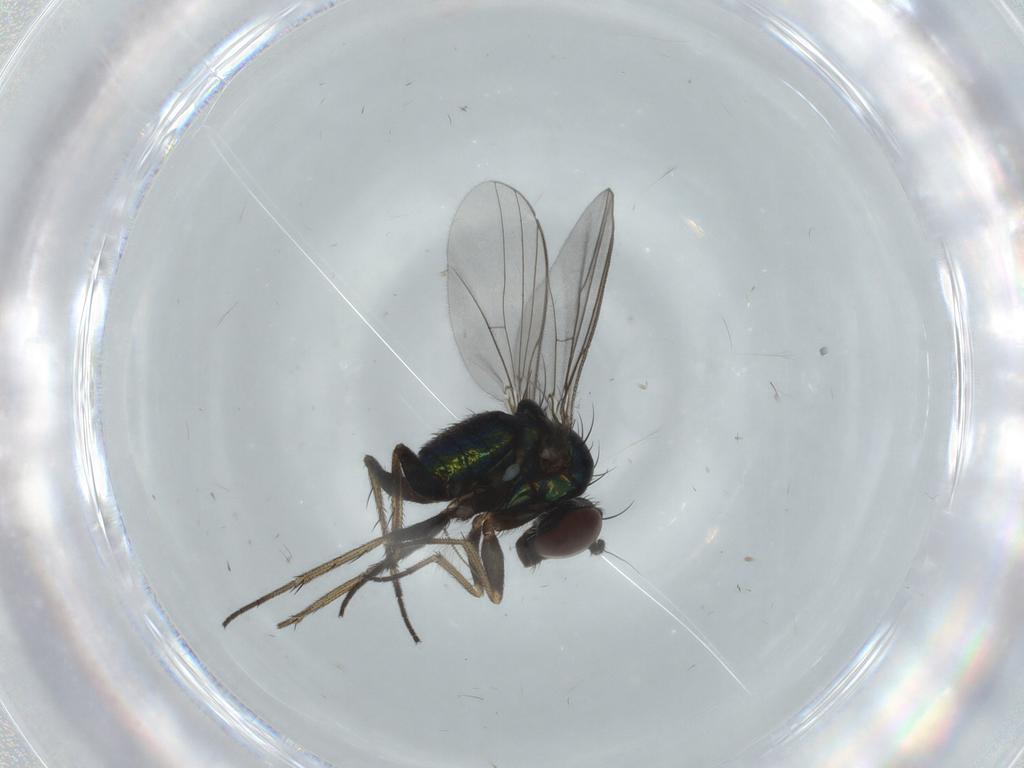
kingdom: Animalia
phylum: Arthropoda
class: Insecta
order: Diptera
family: Chironomidae
